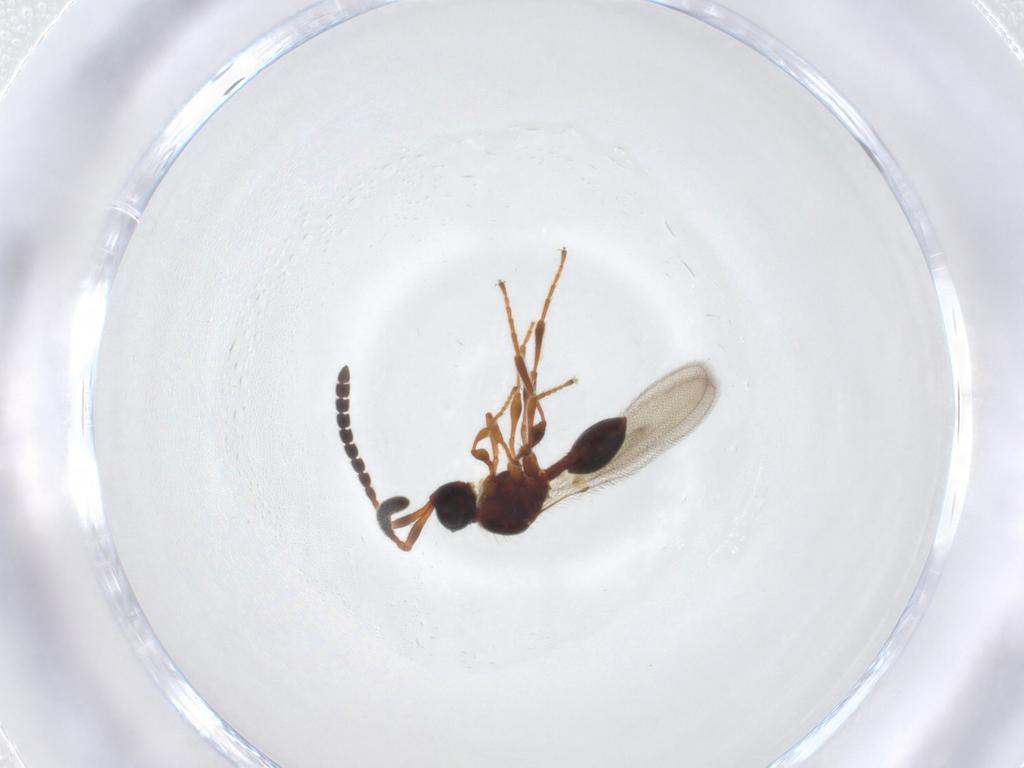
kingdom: Animalia
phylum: Arthropoda
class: Insecta
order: Hymenoptera
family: Diapriidae
